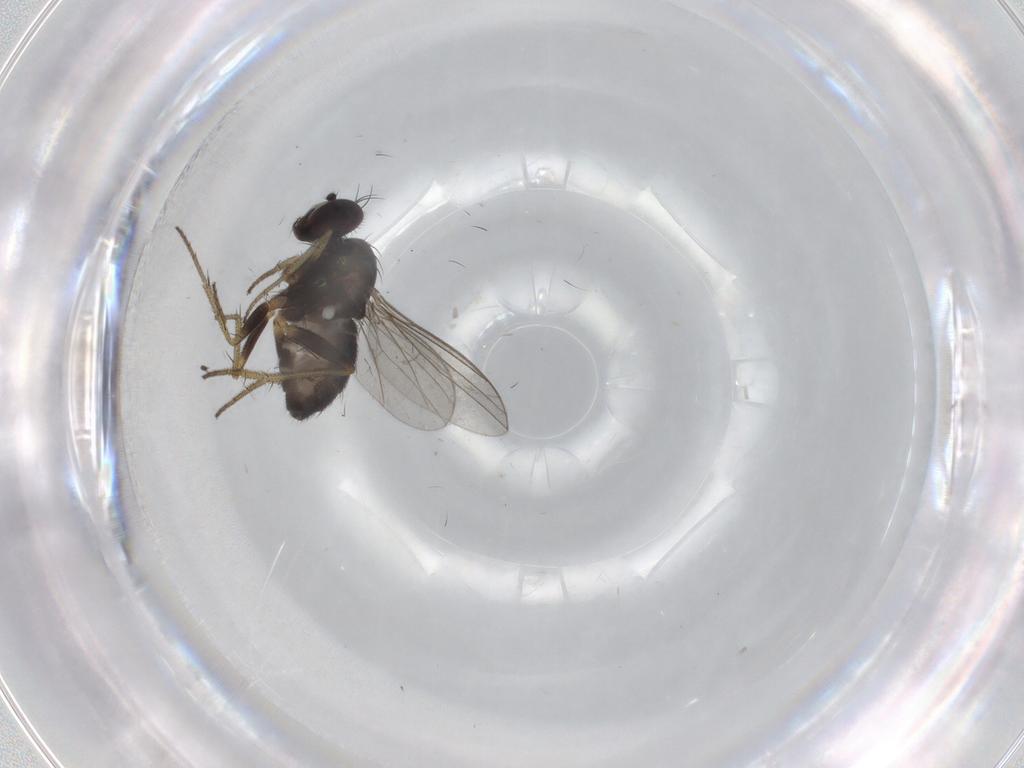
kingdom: Animalia
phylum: Arthropoda
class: Insecta
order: Diptera
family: Dolichopodidae
